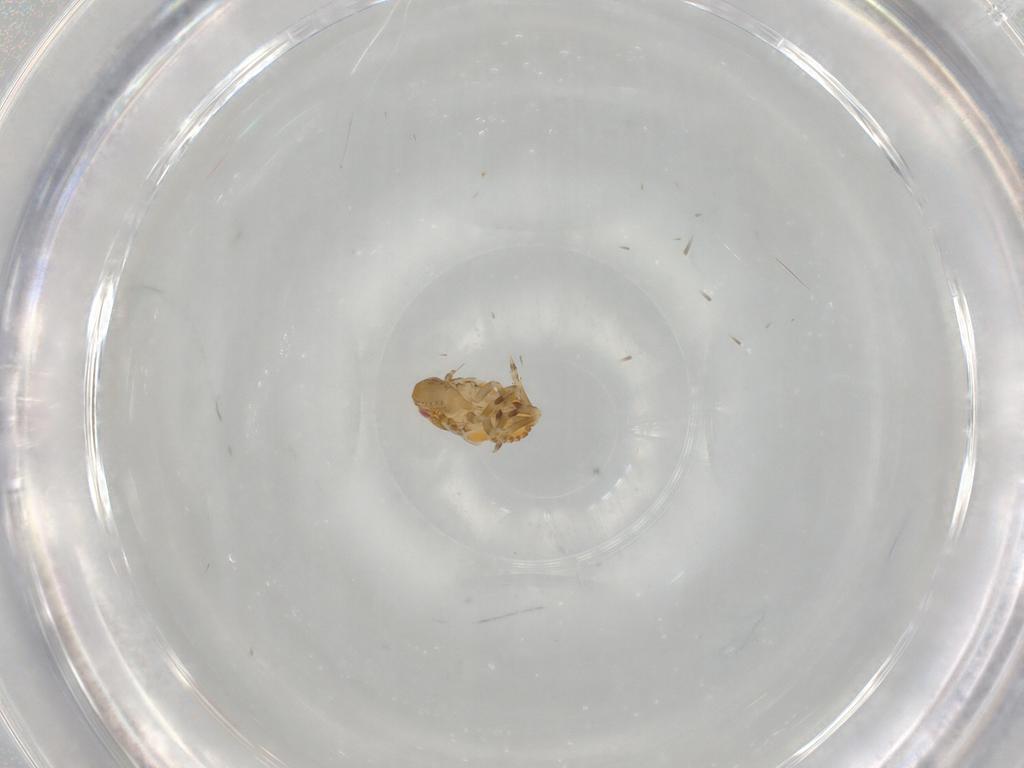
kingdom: Animalia
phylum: Arthropoda
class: Insecta
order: Hemiptera
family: Flatidae
